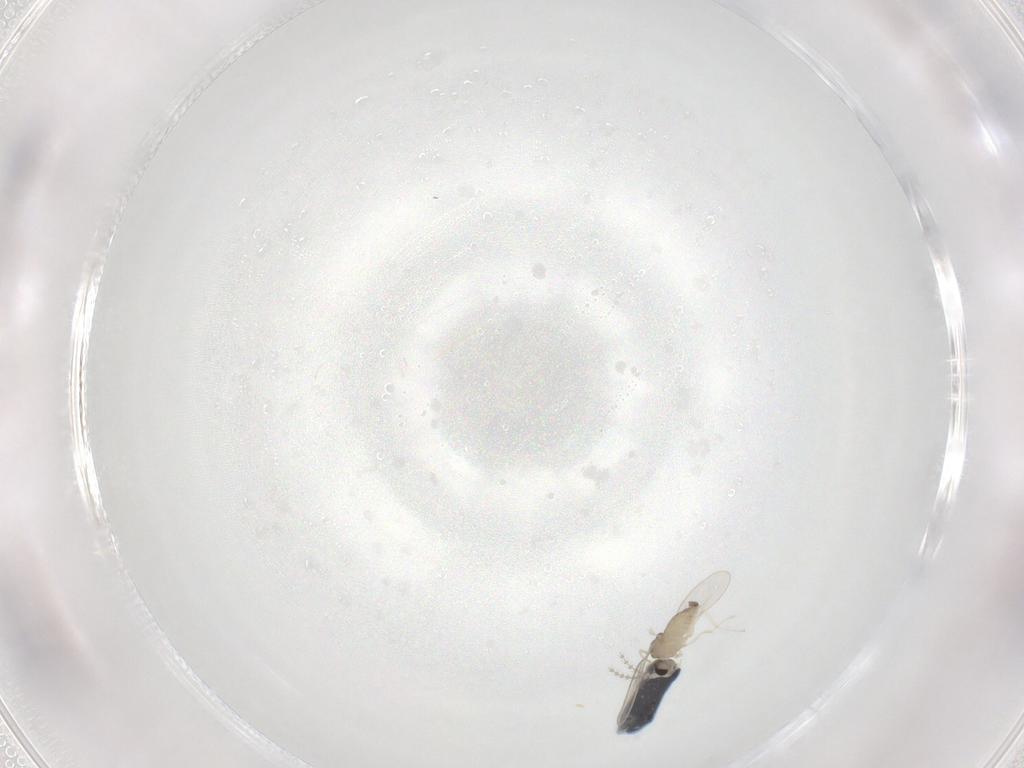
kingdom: Animalia
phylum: Arthropoda
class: Insecta
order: Diptera
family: Cecidomyiidae
